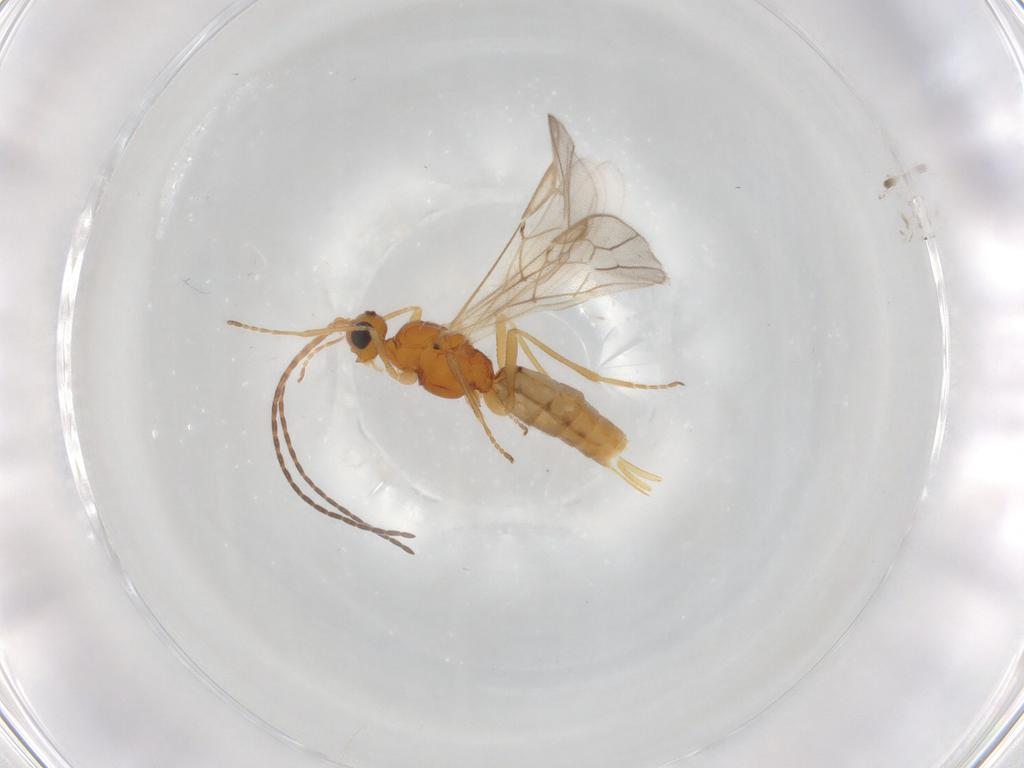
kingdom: Animalia
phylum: Arthropoda
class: Insecta
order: Hymenoptera
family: Braconidae
